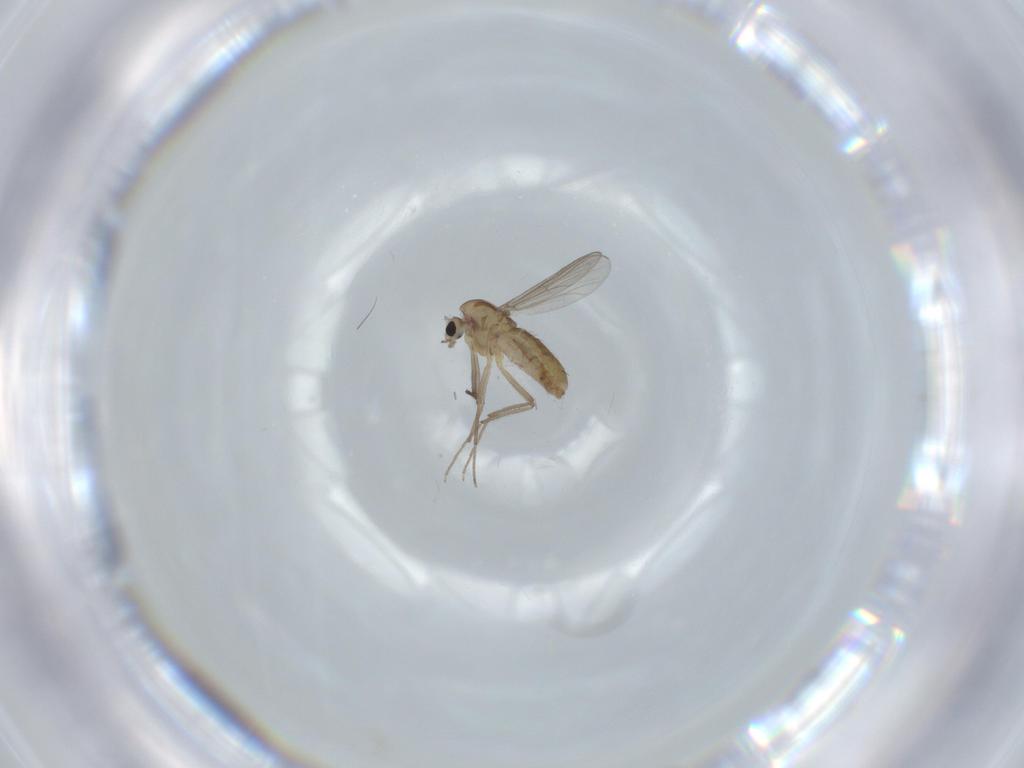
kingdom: Animalia
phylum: Arthropoda
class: Insecta
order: Diptera
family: Chironomidae
